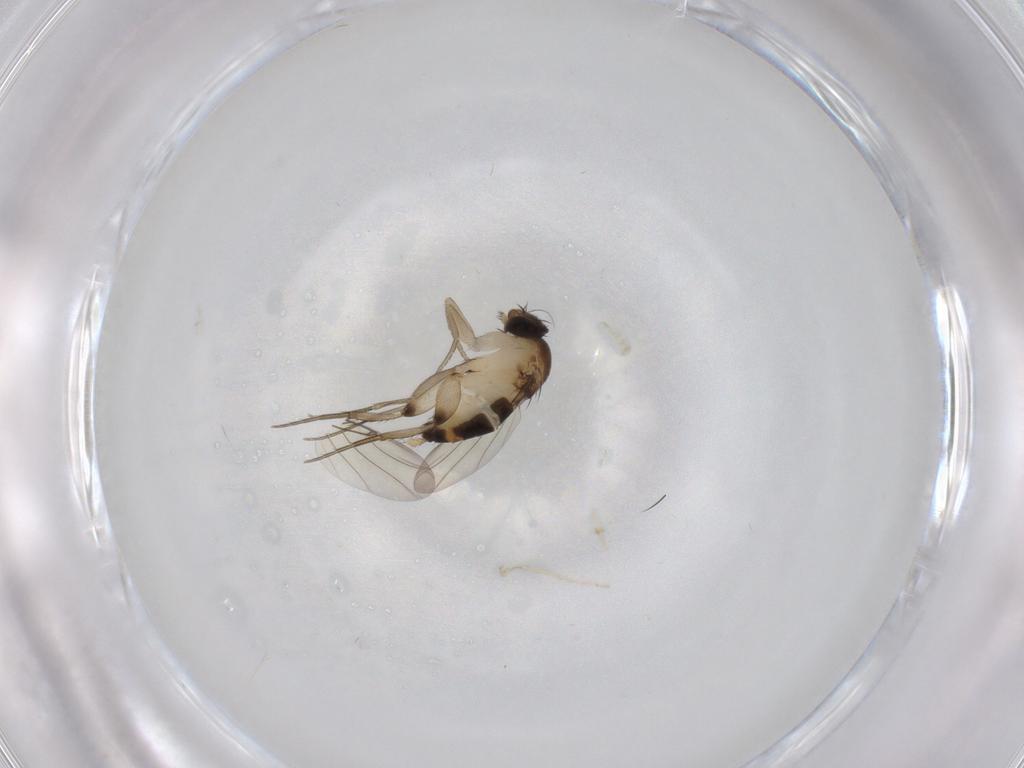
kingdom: Animalia
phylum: Arthropoda
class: Insecta
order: Diptera
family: Phoridae
